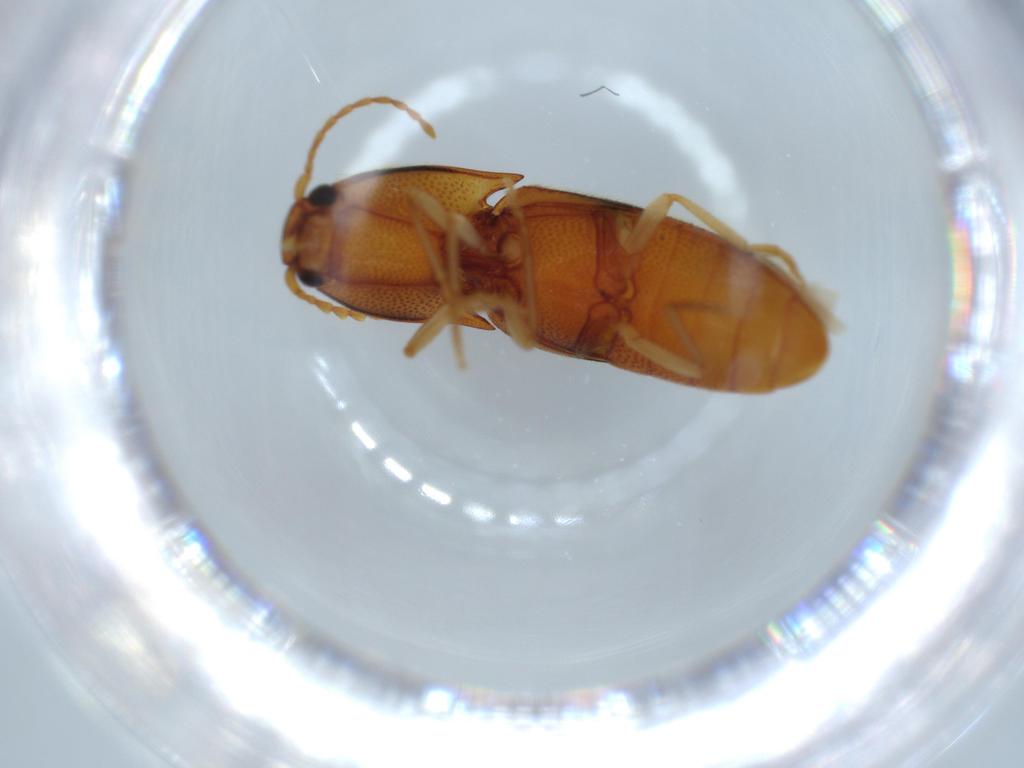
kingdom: Animalia
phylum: Arthropoda
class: Insecta
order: Coleoptera
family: Elateridae
